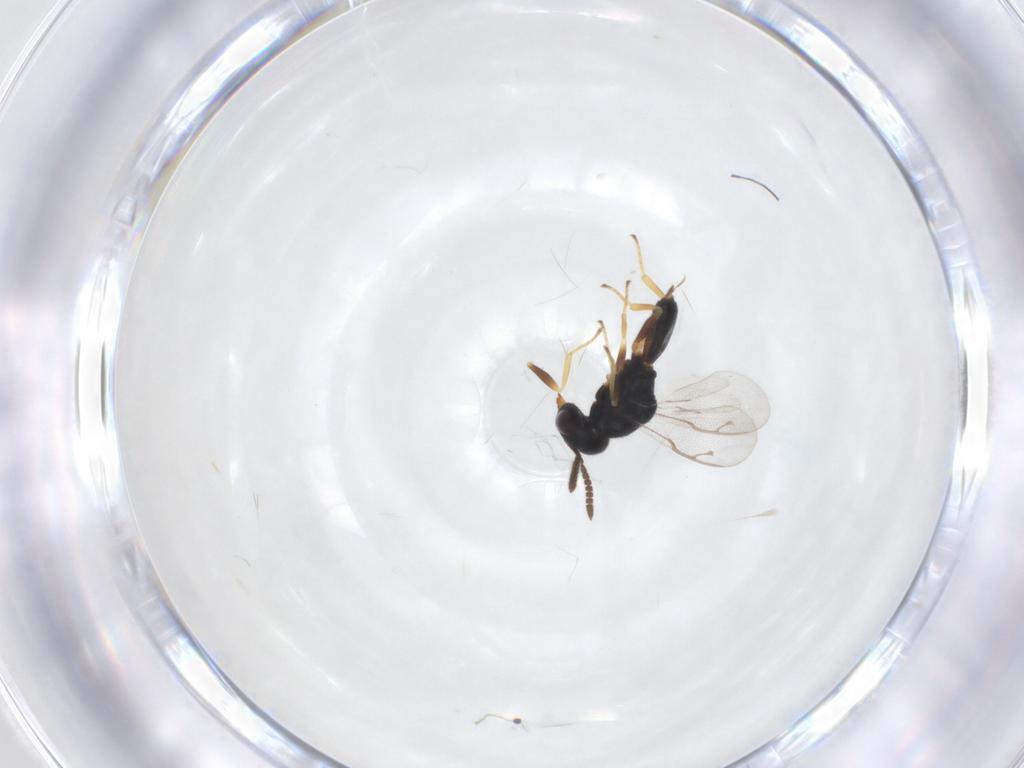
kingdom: Animalia
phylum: Arthropoda
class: Insecta
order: Hymenoptera
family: Pteromalidae
